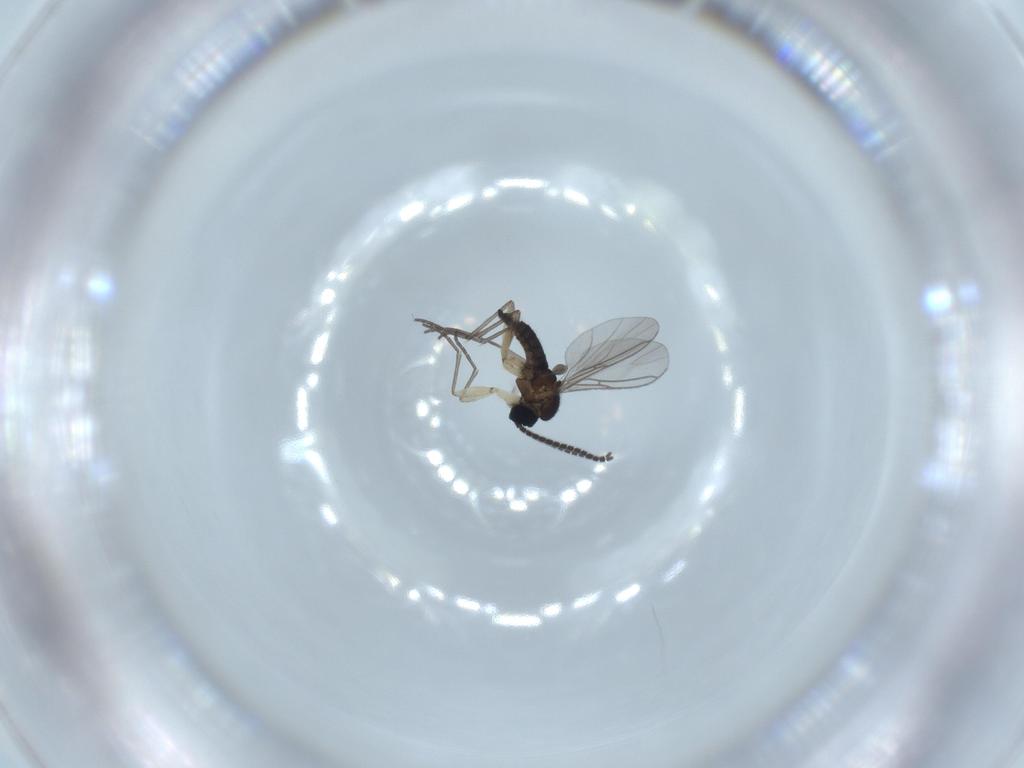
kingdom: Animalia
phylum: Arthropoda
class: Insecta
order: Diptera
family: Sciaridae
